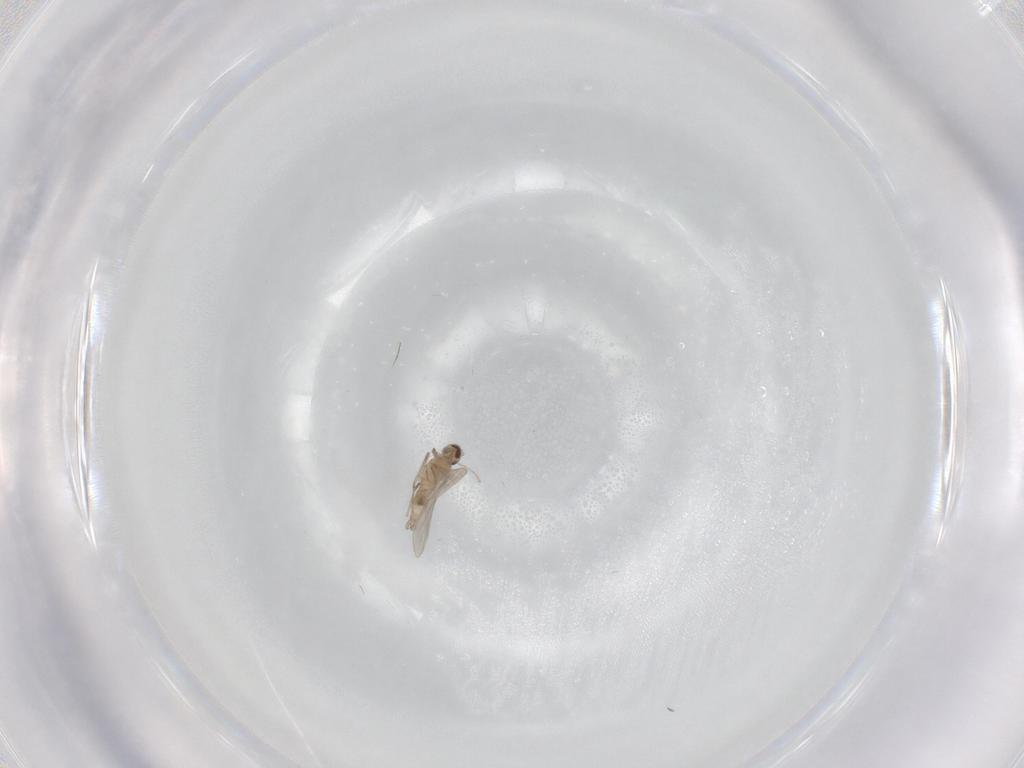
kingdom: Animalia
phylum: Arthropoda
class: Insecta
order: Diptera
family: Cecidomyiidae
